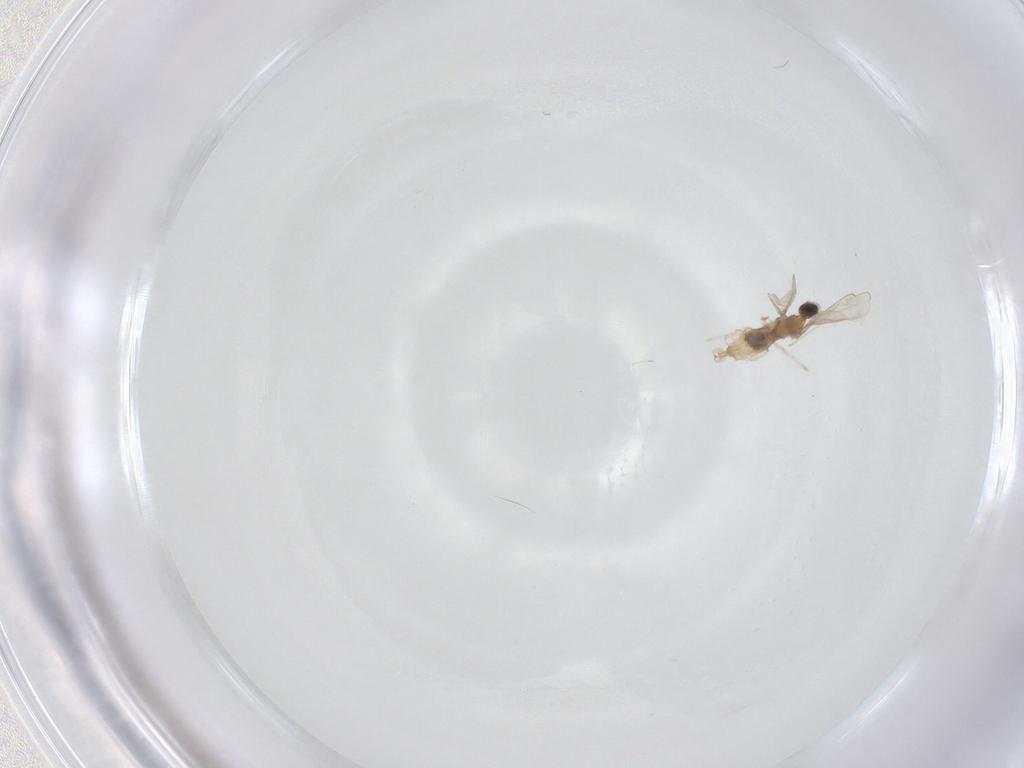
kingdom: Animalia
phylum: Arthropoda
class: Insecta
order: Diptera
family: Cecidomyiidae
